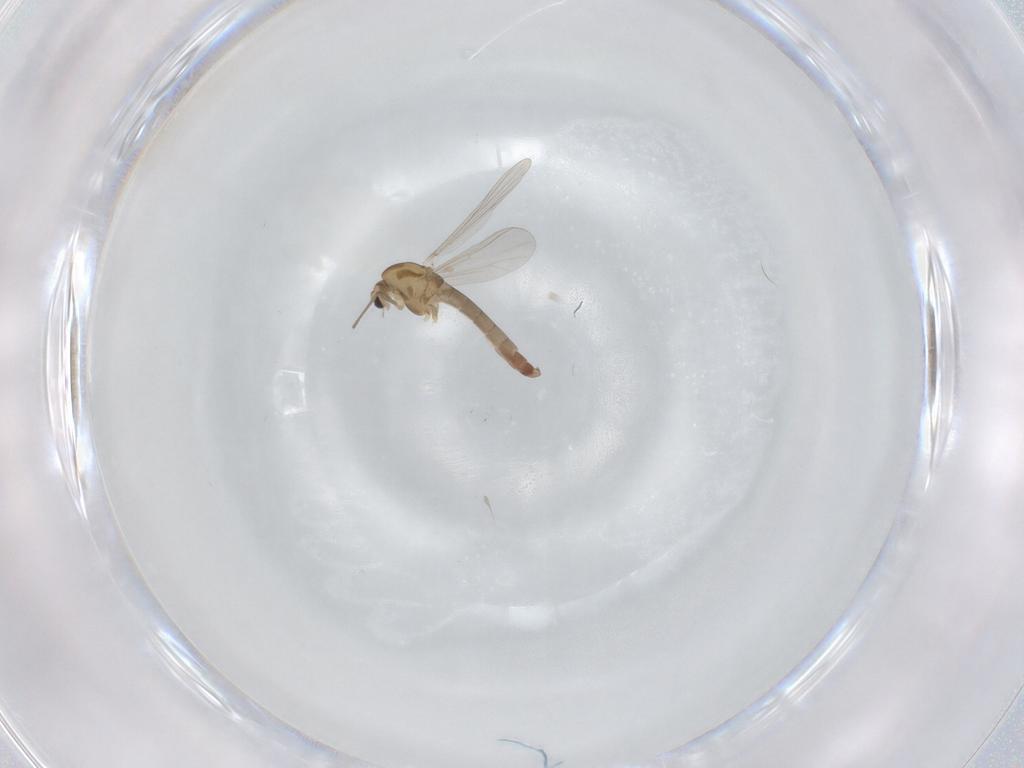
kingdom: Animalia
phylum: Arthropoda
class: Insecta
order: Diptera
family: Chironomidae
